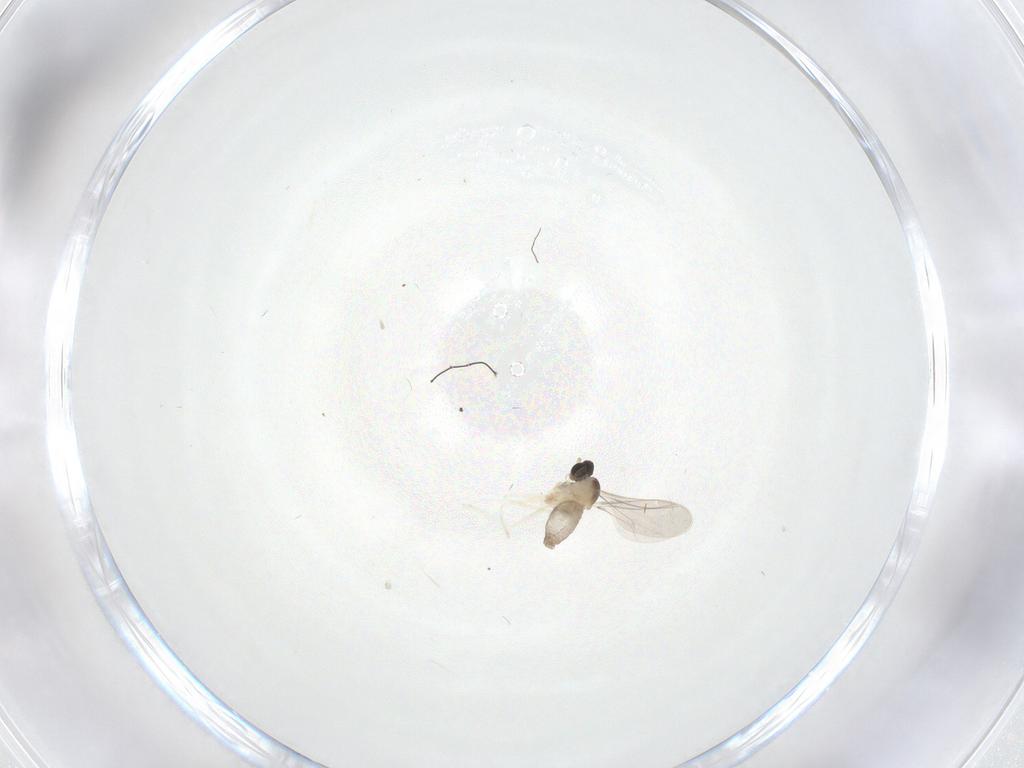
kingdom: Animalia
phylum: Arthropoda
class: Insecta
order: Diptera
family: Cecidomyiidae
